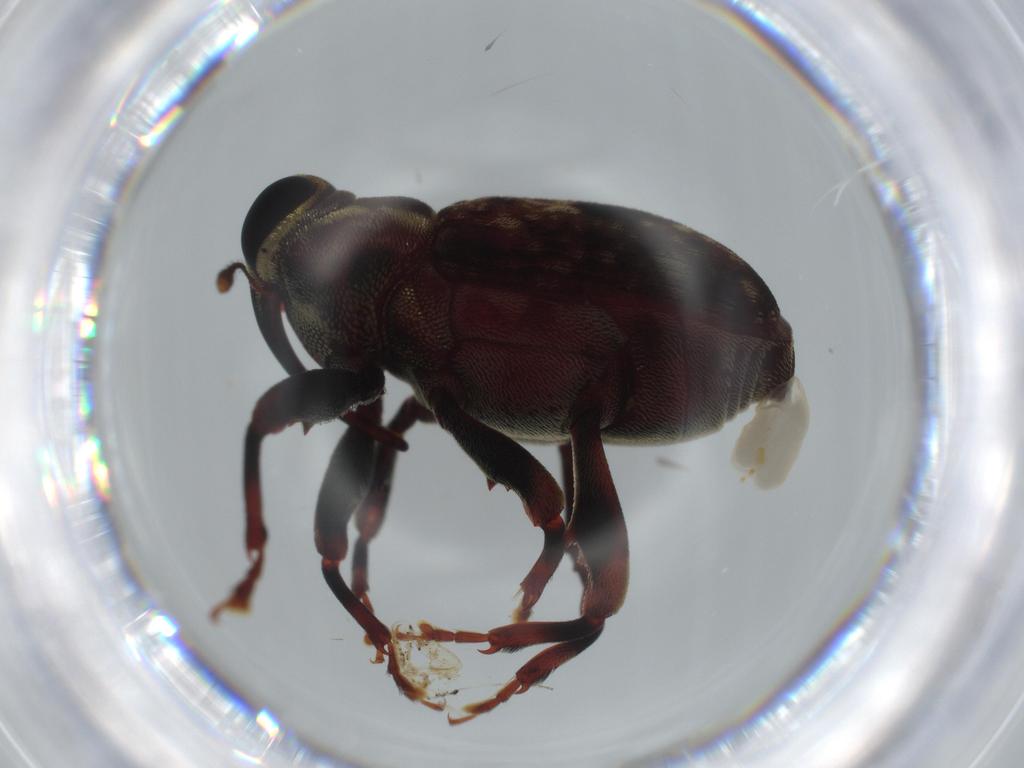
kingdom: Animalia
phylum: Arthropoda
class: Insecta
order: Coleoptera
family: Curculionidae
